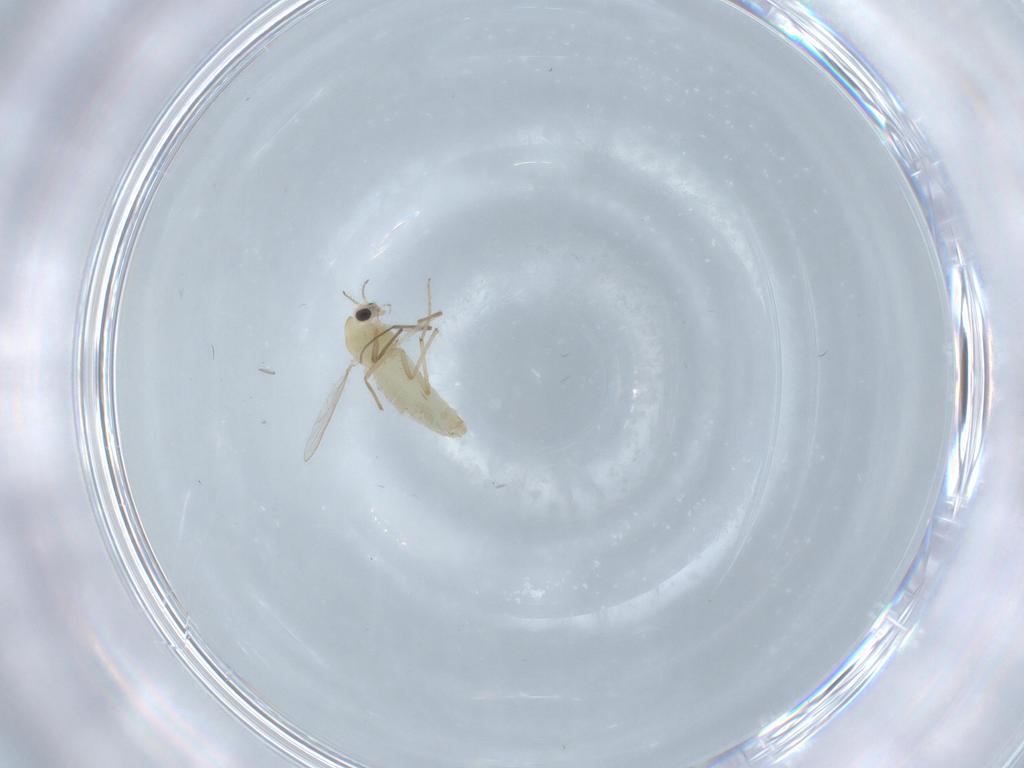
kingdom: Animalia
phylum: Arthropoda
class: Insecta
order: Diptera
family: Chironomidae
